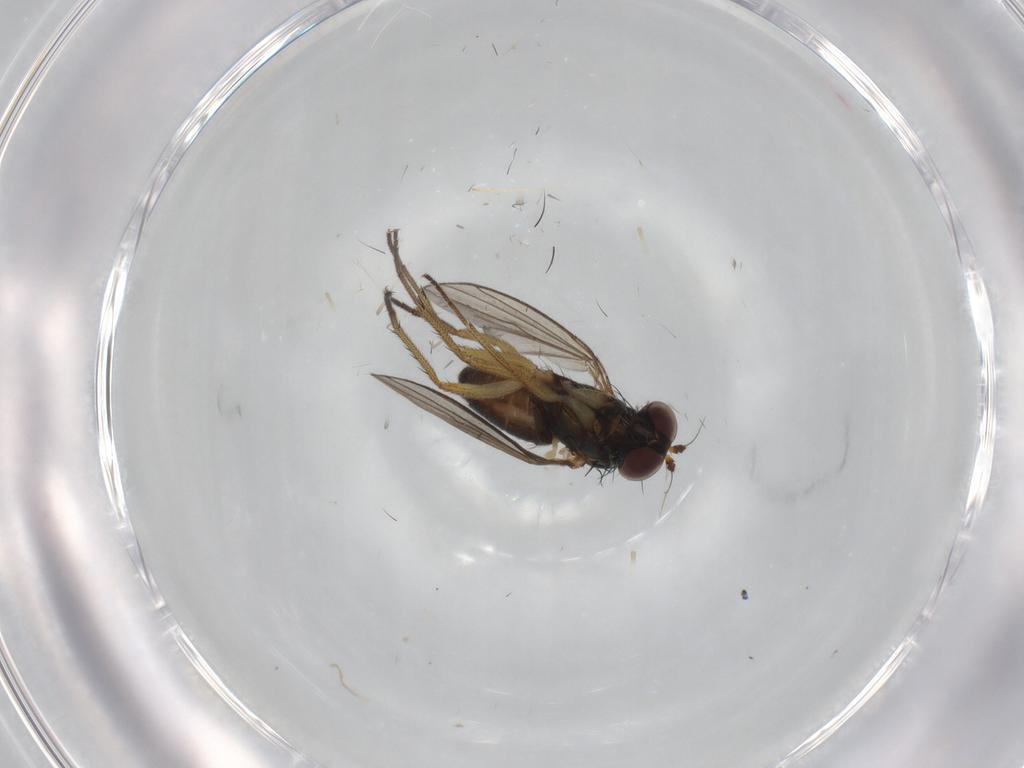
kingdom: Animalia
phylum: Arthropoda
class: Insecta
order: Diptera
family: Dolichopodidae
